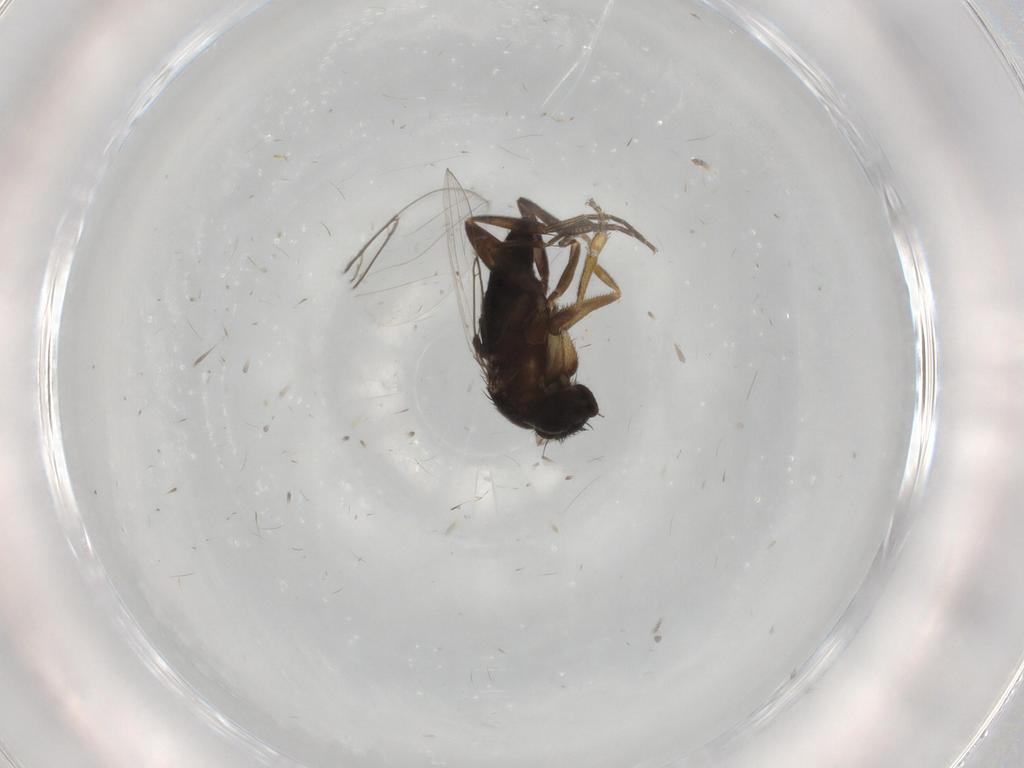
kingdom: Animalia
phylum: Arthropoda
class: Insecta
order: Diptera
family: Phoridae
